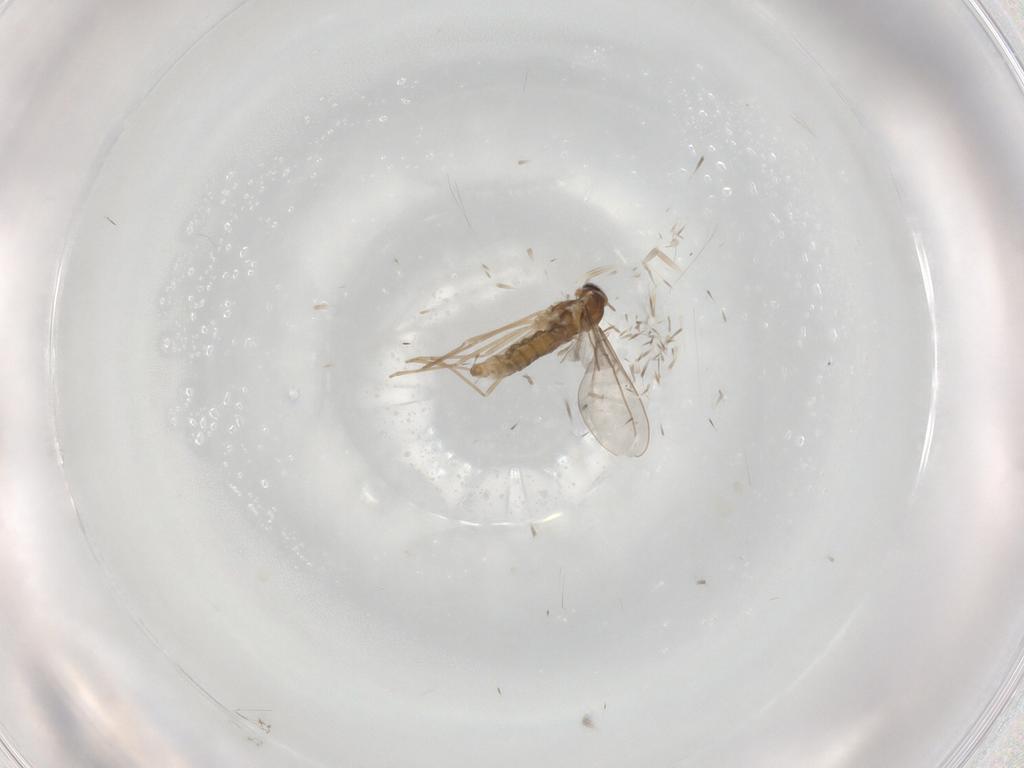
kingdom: Animalia
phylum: Arthropoda
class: Insecta
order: Diptera
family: Cecidomyiidae
